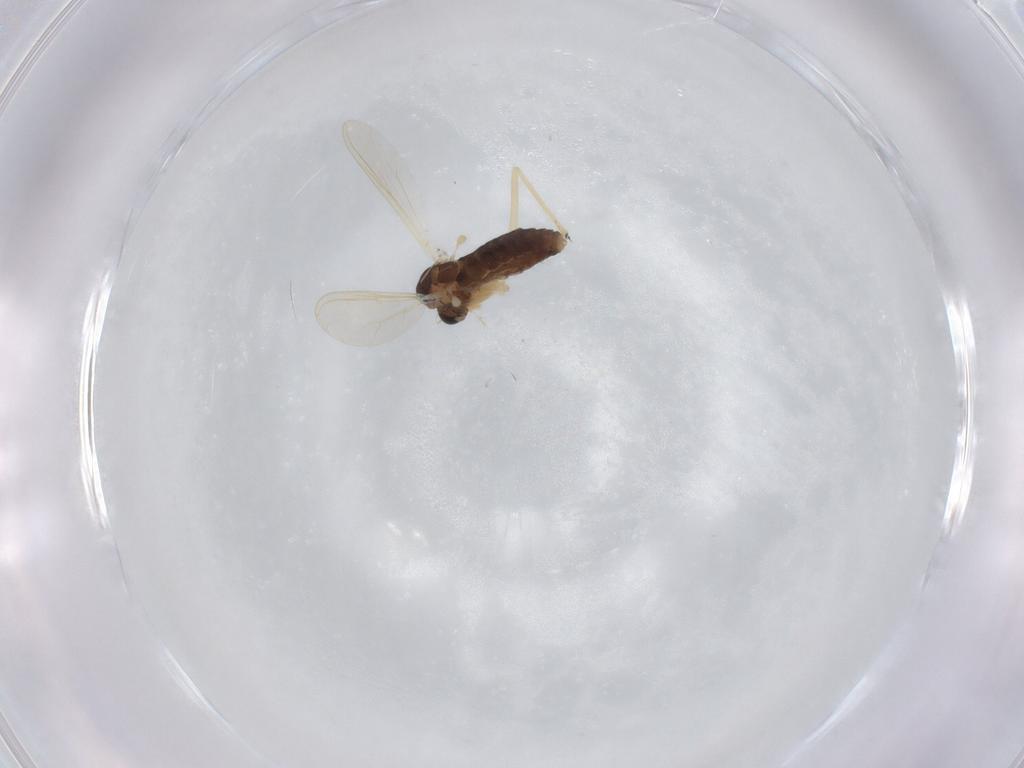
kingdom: Animalia
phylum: Arthropoda
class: Insecta
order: Diptera
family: Chironomidae
